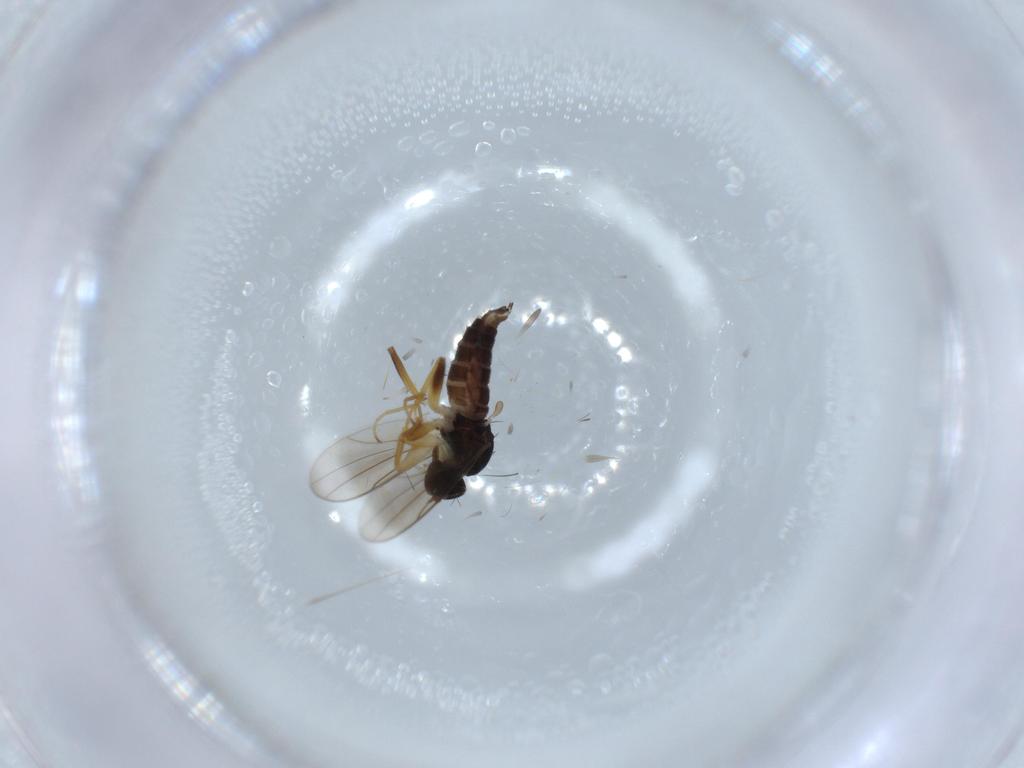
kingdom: Animalia
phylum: Arthropoda
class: Insecta
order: Diptera
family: Hybotidae
